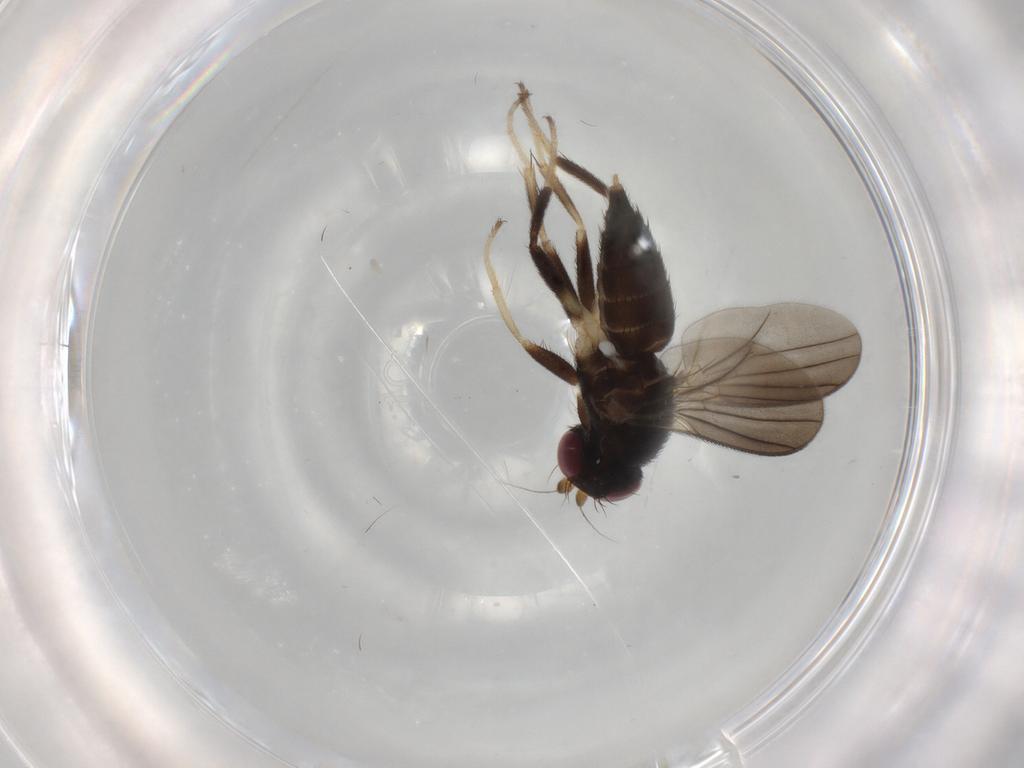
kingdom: Animalia
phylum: Arthropoda
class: Insecta
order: Diptera
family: Clusiidae
